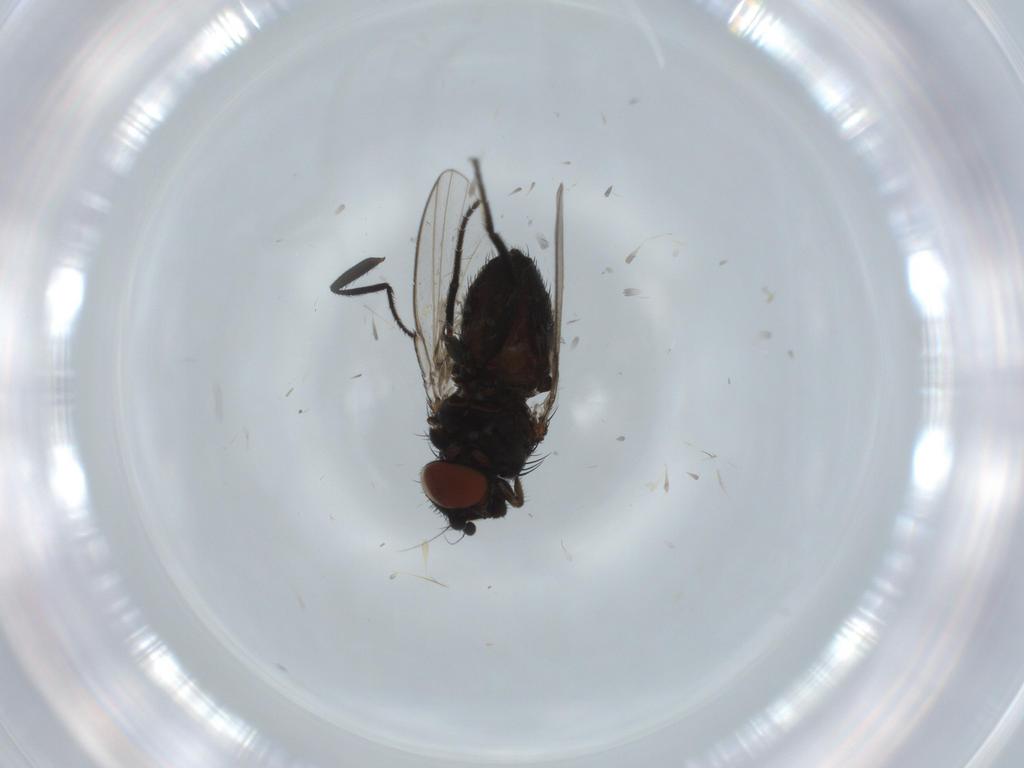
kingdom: Animalia
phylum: Arthropoda
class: Insecta
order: Diptera
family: Milichiidae
